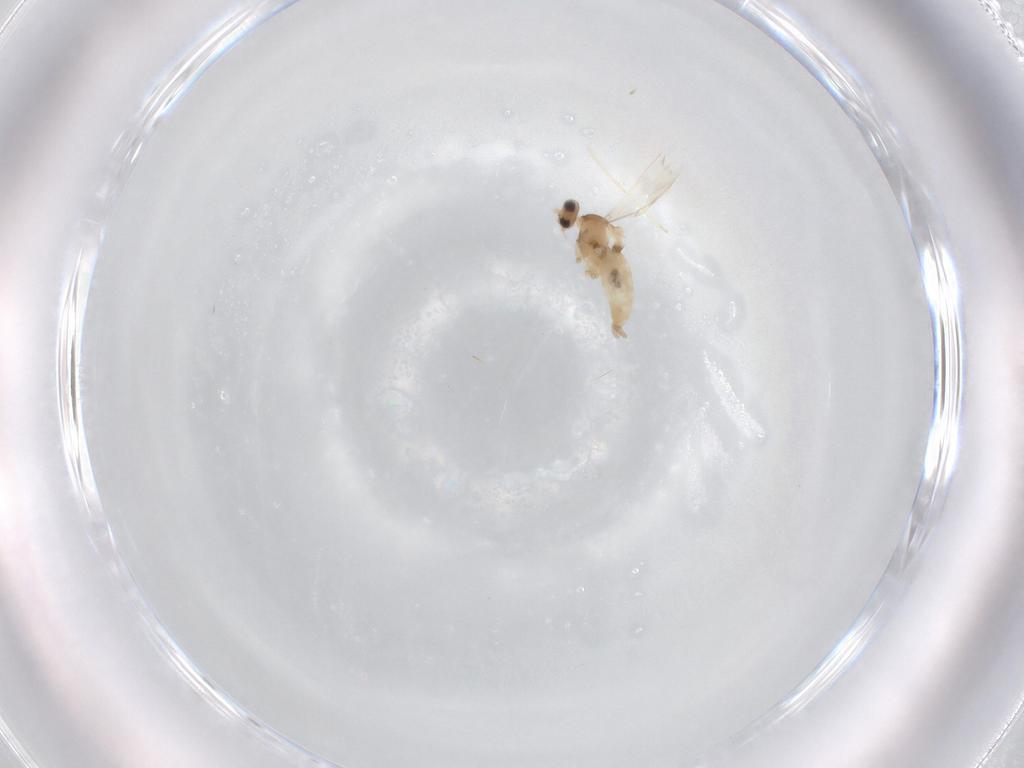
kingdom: Animalia
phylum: Arthropoda
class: Insecta
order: Diptera
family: Cecidomyiidae
